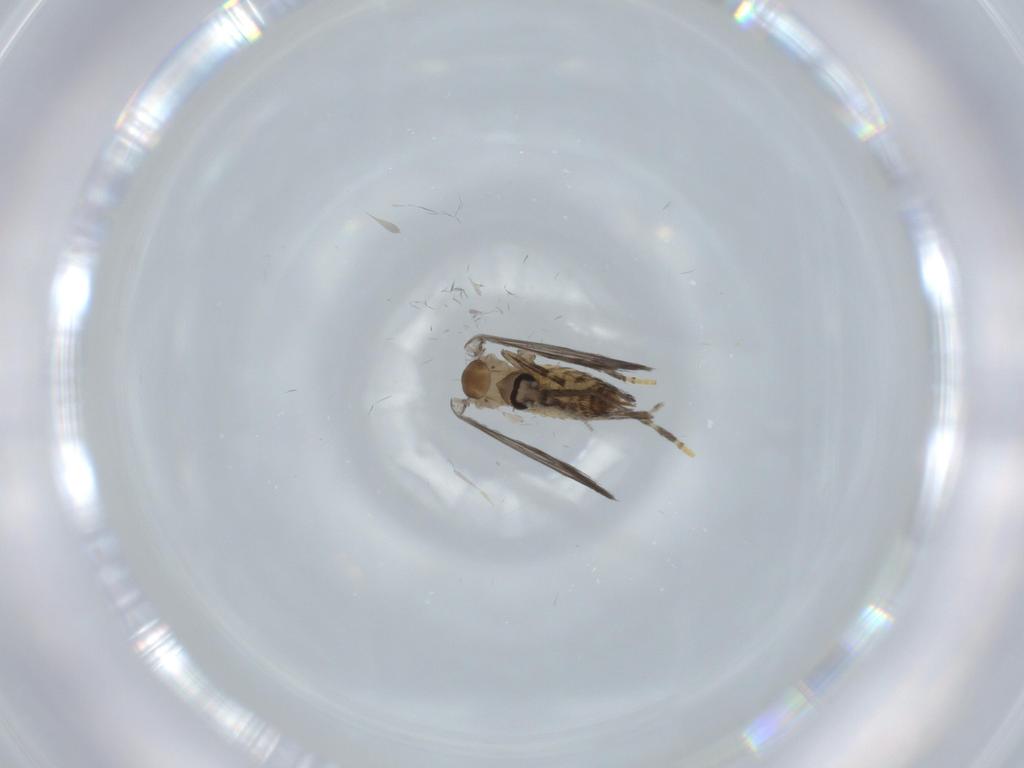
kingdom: Animalia
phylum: Arthropoda
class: Insecta
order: Diptera
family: Psychodidae
